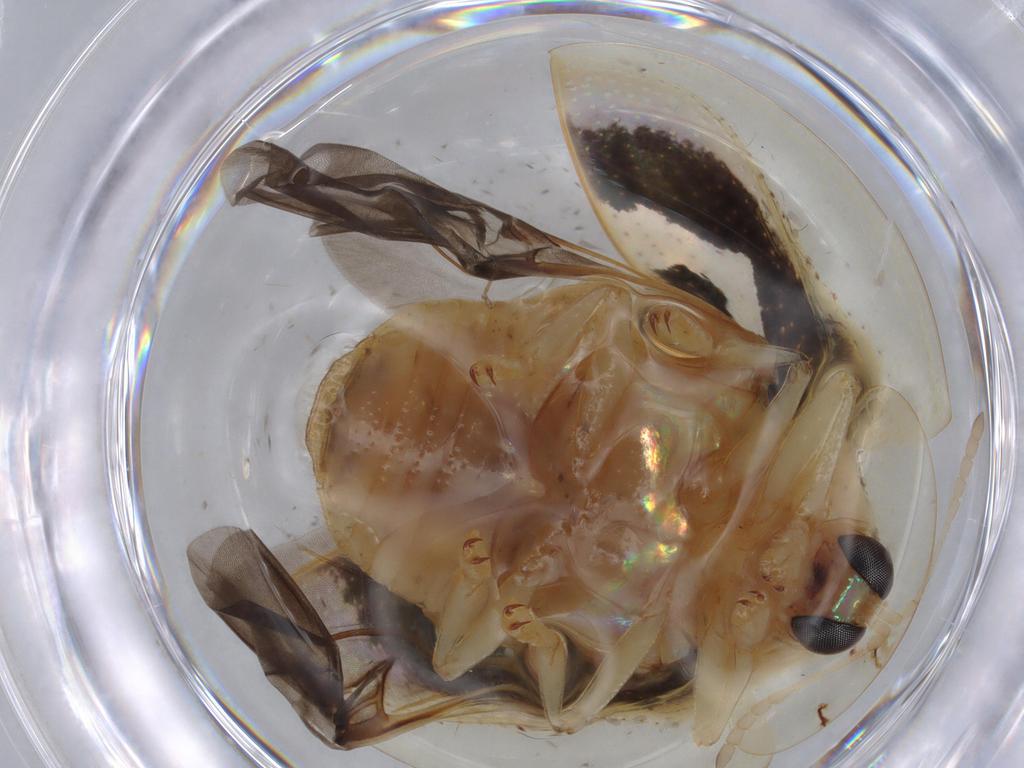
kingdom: Animalia
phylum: Arthropoda
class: Insecta
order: Coleoptera
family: Chrysomelidae
